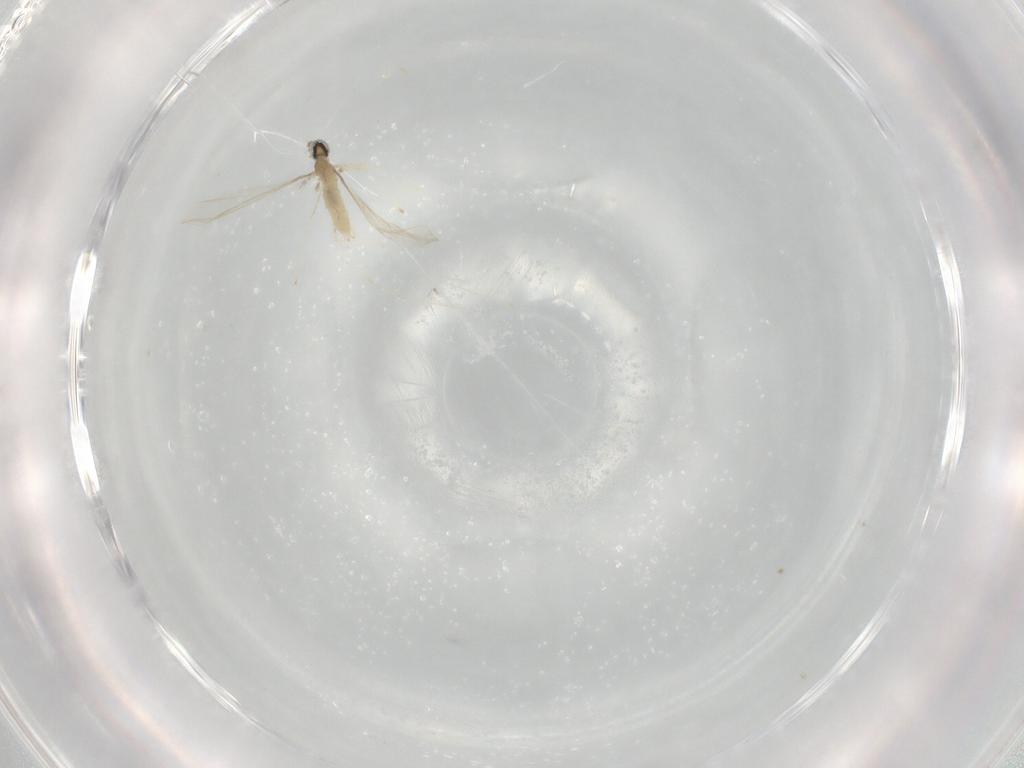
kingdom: Animalia
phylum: Arthropoda
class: Insecta
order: Diptera
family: Cecidomyiidae
